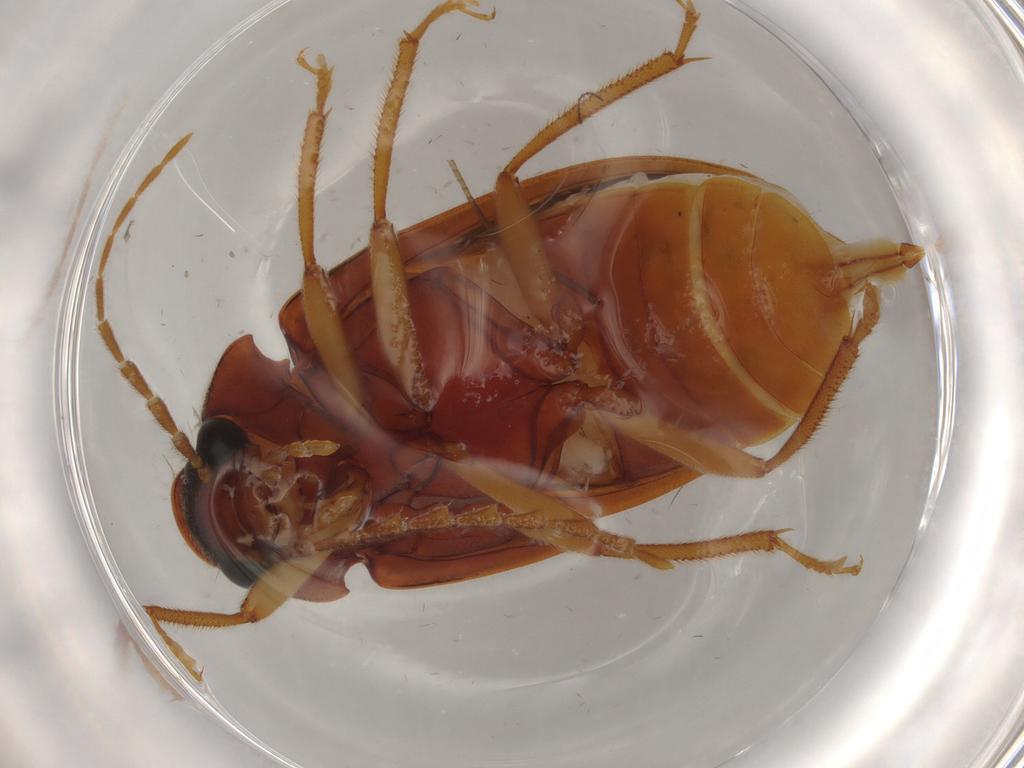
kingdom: Animalia
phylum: Arthropoda
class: Insecta
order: Coleoptera
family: Ptilodactylidae
